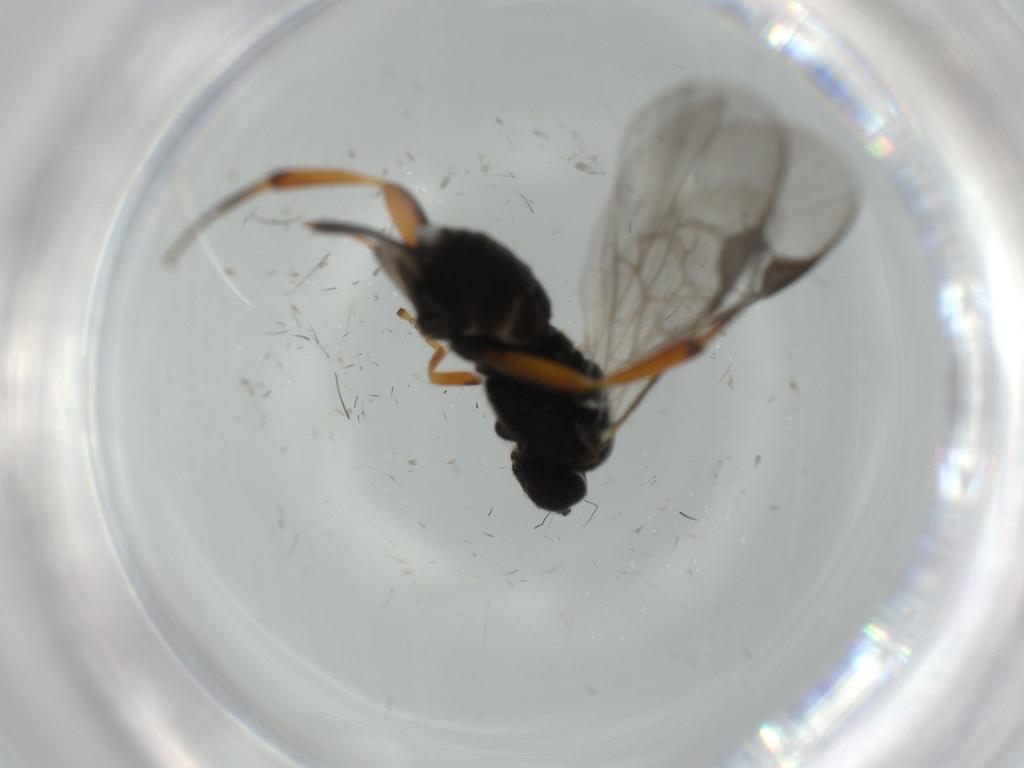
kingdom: Animalia
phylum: Arthropoda
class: Insecta
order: Hymenoptera
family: Braconidae
